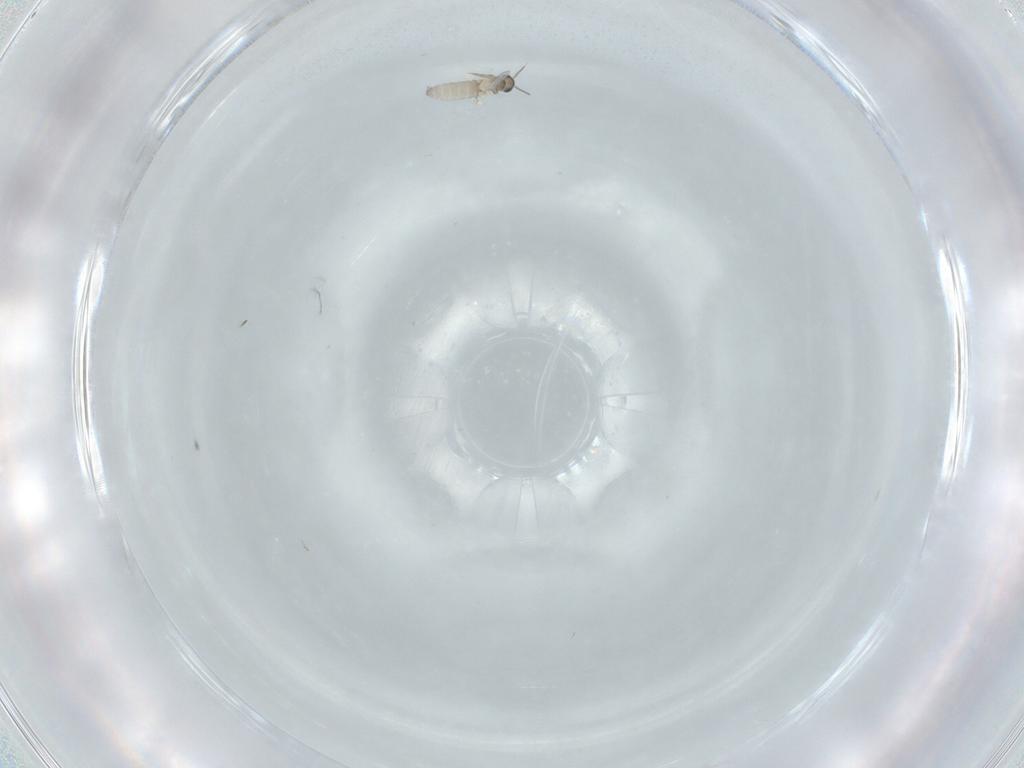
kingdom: Animalia
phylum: Arthropoda
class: Insecta
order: Diptera
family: Cecidomyiidae
